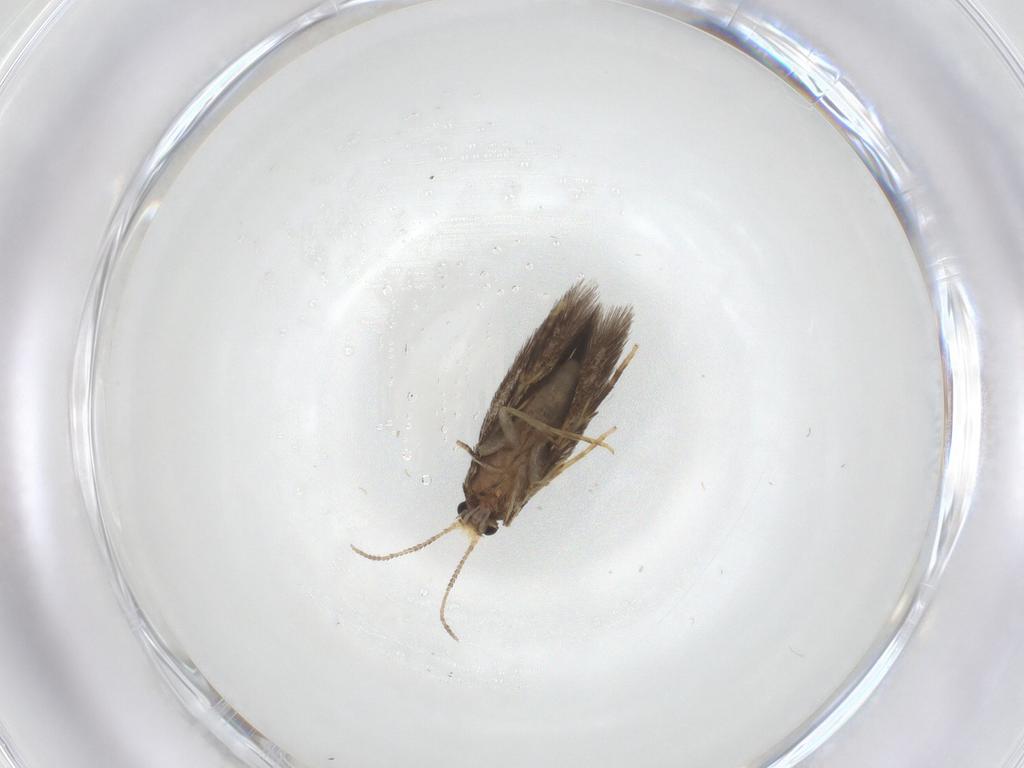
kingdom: Animalia
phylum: Arthropoda
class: Insecta
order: Lepidoptera
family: Nepticulidae
